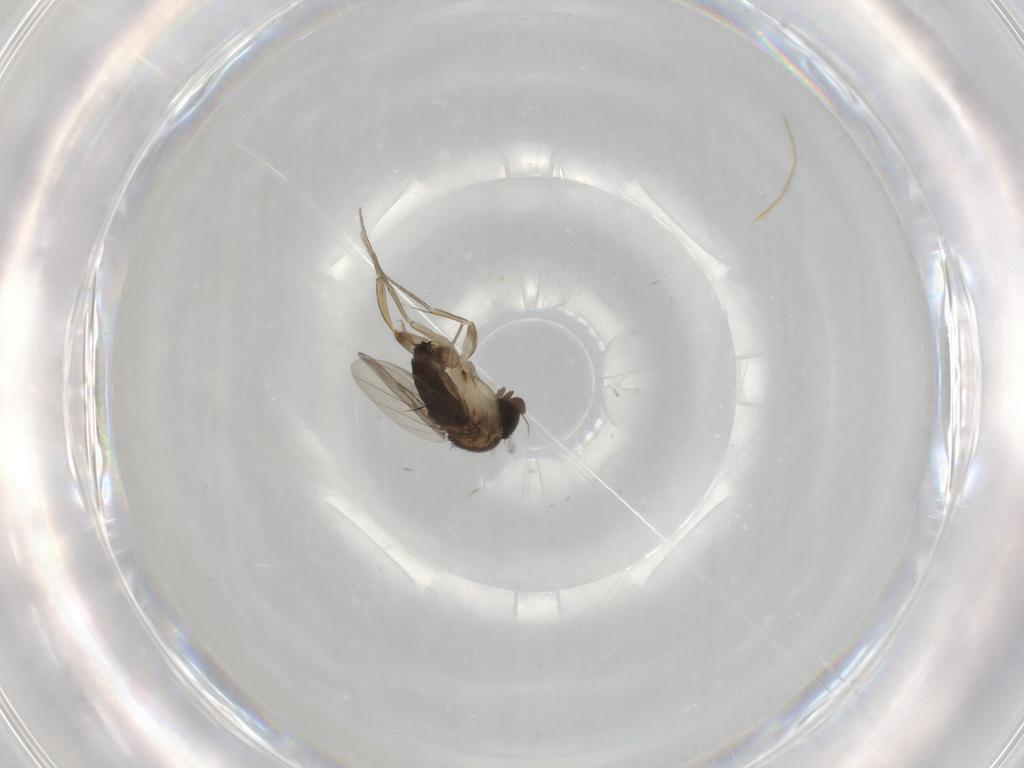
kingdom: Animalia
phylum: Arthropoda
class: Insecta
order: Diptera
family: Phoridae
